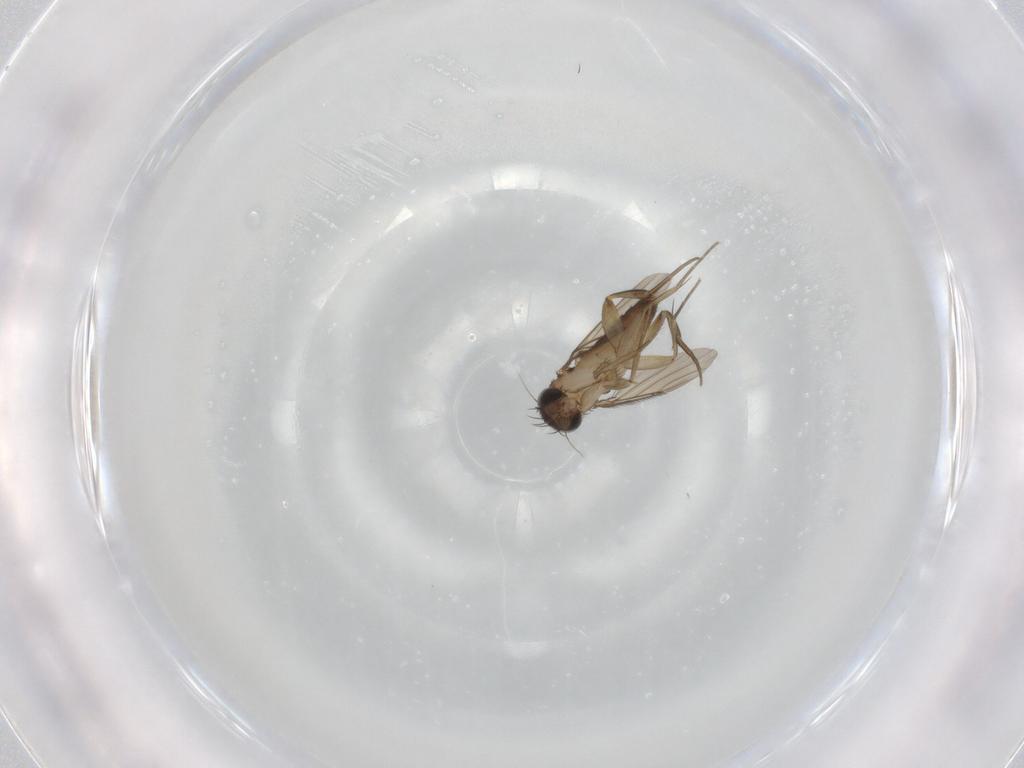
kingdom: Animalia
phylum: Arthropoda
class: Insecta
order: Diptera
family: Phoridae
